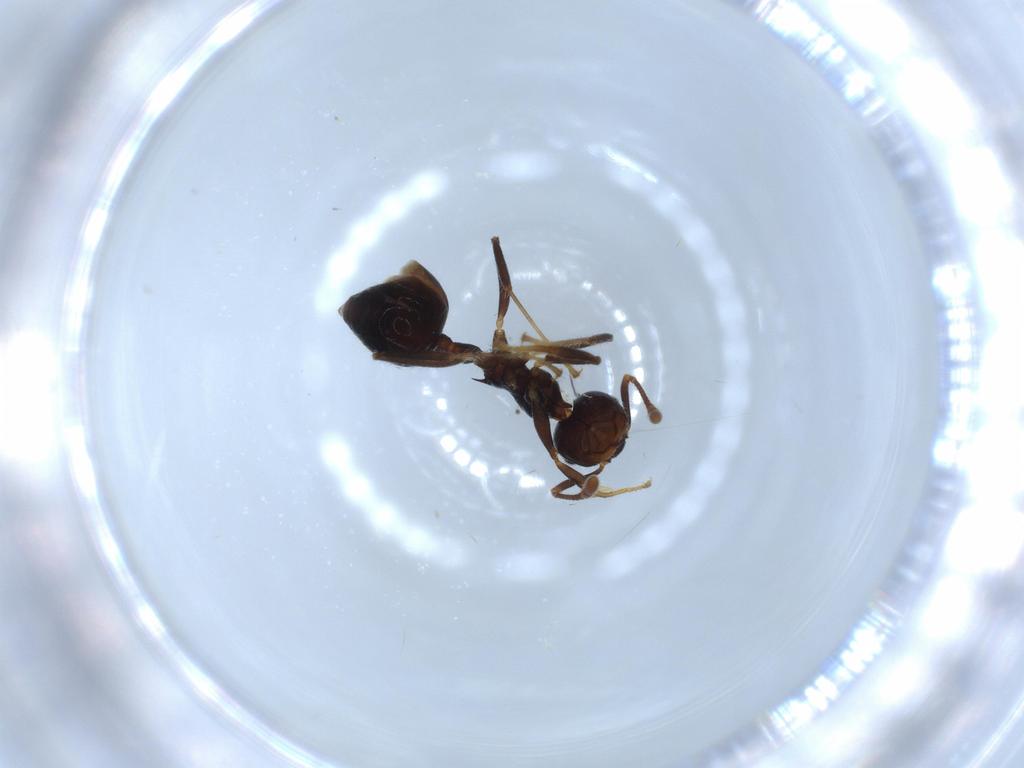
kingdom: Animalia
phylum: Arthropoda
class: Insecta
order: Hymenoptera
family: Formicidae
